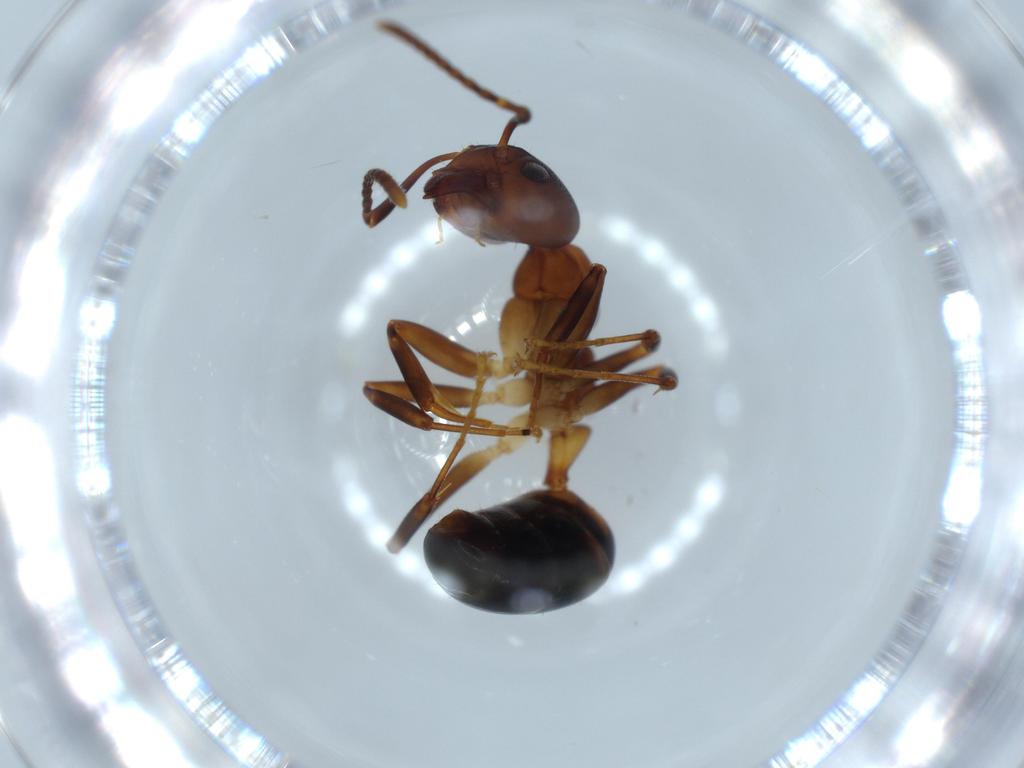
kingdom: Animalia
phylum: Arthropoda
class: Insecta
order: Hymenoptera
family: Formicidae
